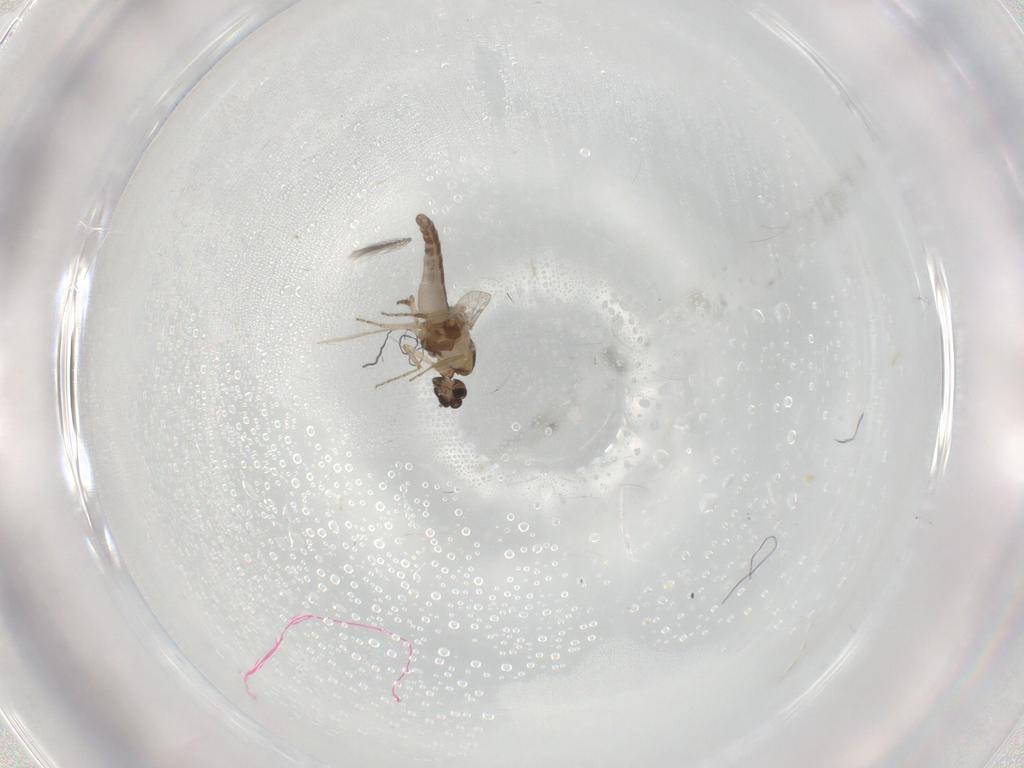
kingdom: Animalia
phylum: Arthropoda
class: Insecta
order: Diptera
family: Ceratopogonidae
